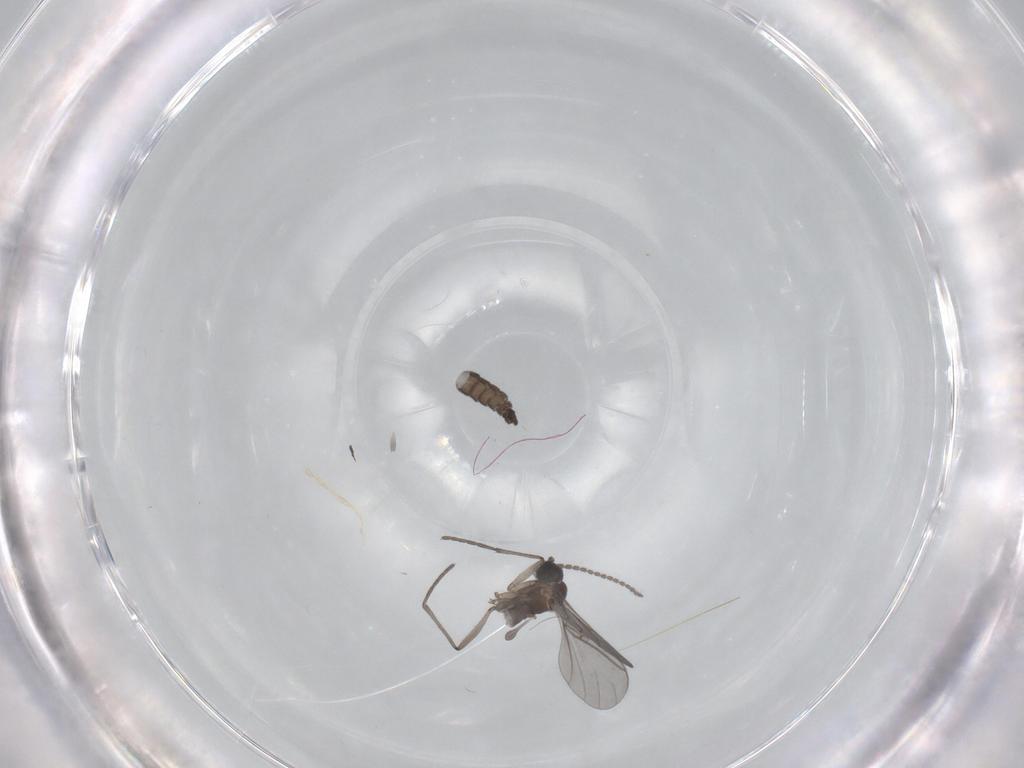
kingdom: Animalia
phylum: Arthropoda
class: Insecta
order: Diptera
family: Sciaridae
